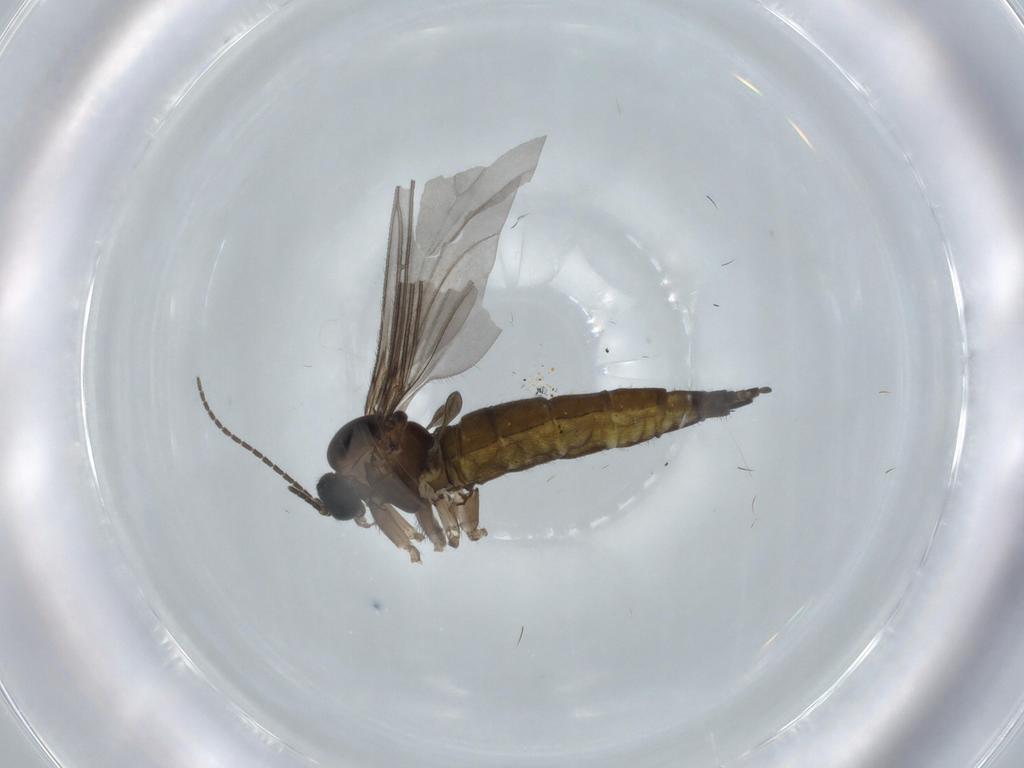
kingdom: Animalia
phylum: Arthropoda
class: Insecta
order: Diptera
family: Sciaridae
